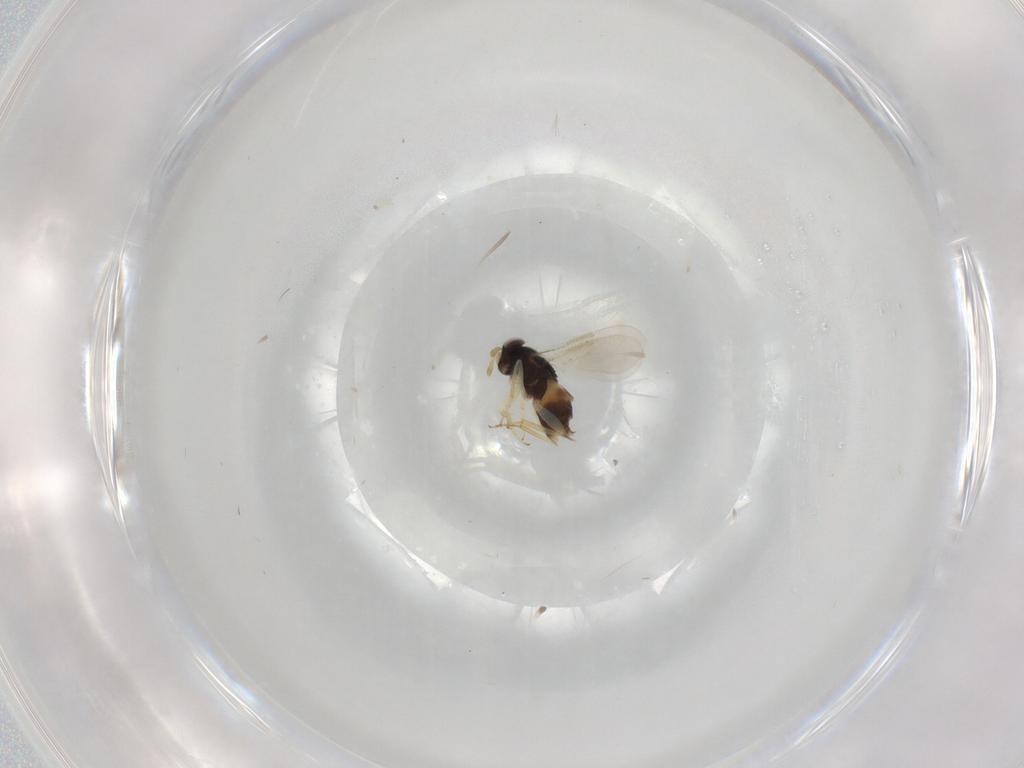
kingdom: Animalia
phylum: Arthropoda
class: Insecta
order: Hymenoptera
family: Aphelinidae
